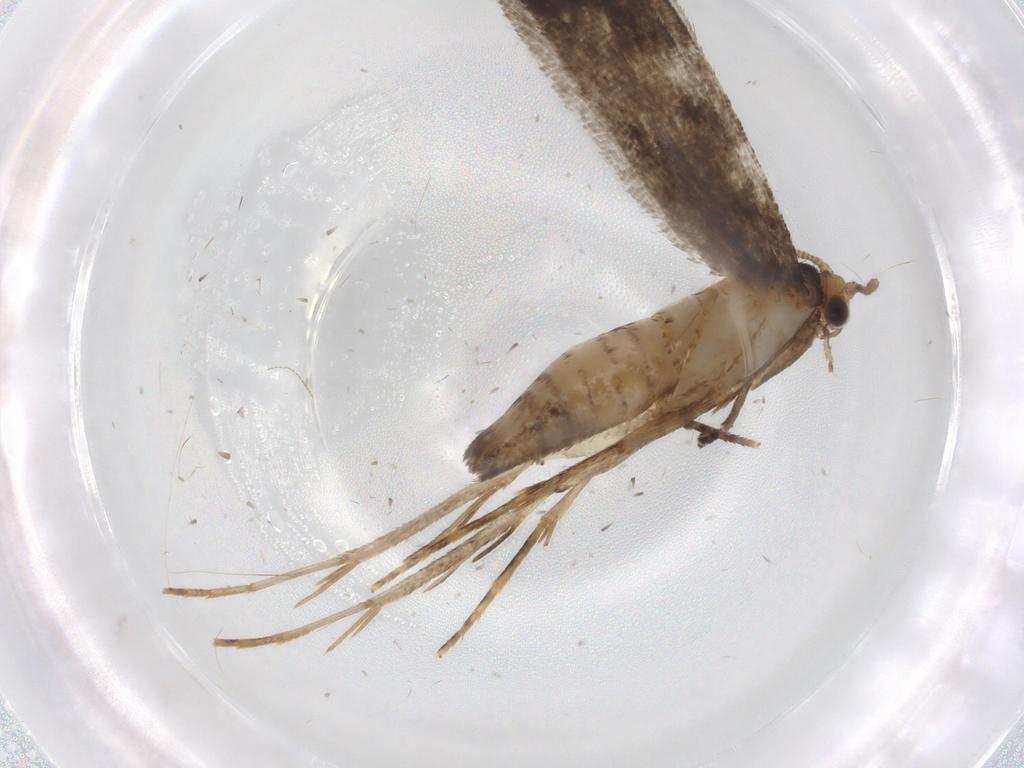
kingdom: Animalia
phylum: Arthropoda
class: Insecta
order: Lepidoptera
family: Tineidae
